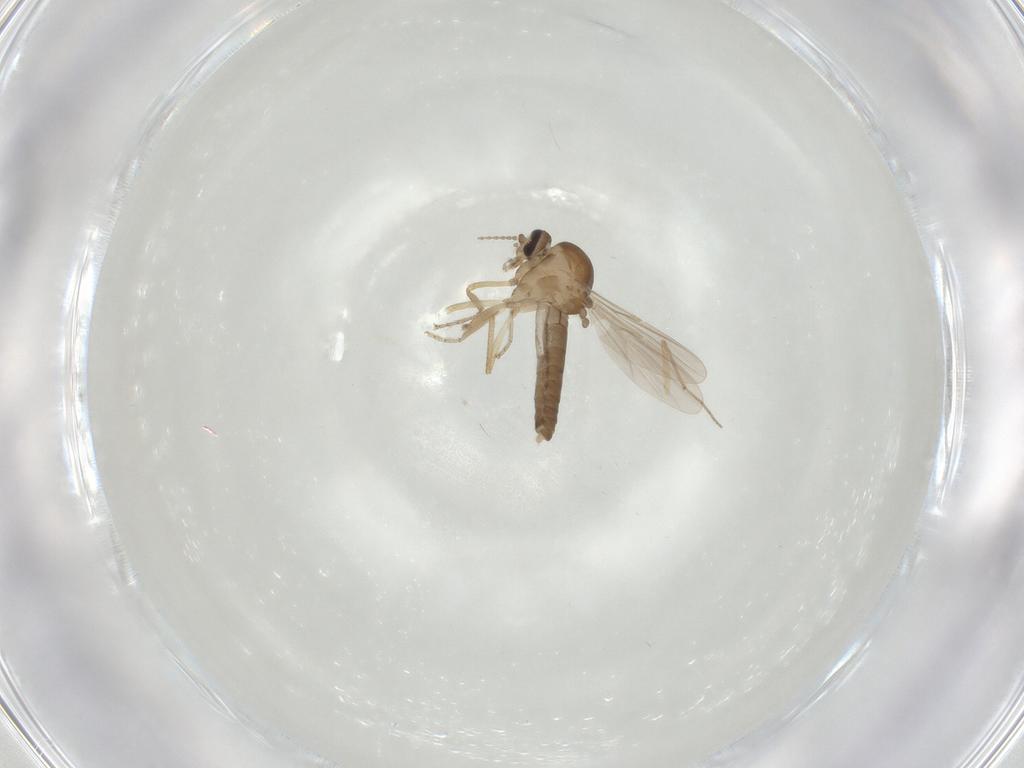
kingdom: Animalia
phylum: Arthropoda
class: Insecta
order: Diptera
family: Ceratopogonidae
